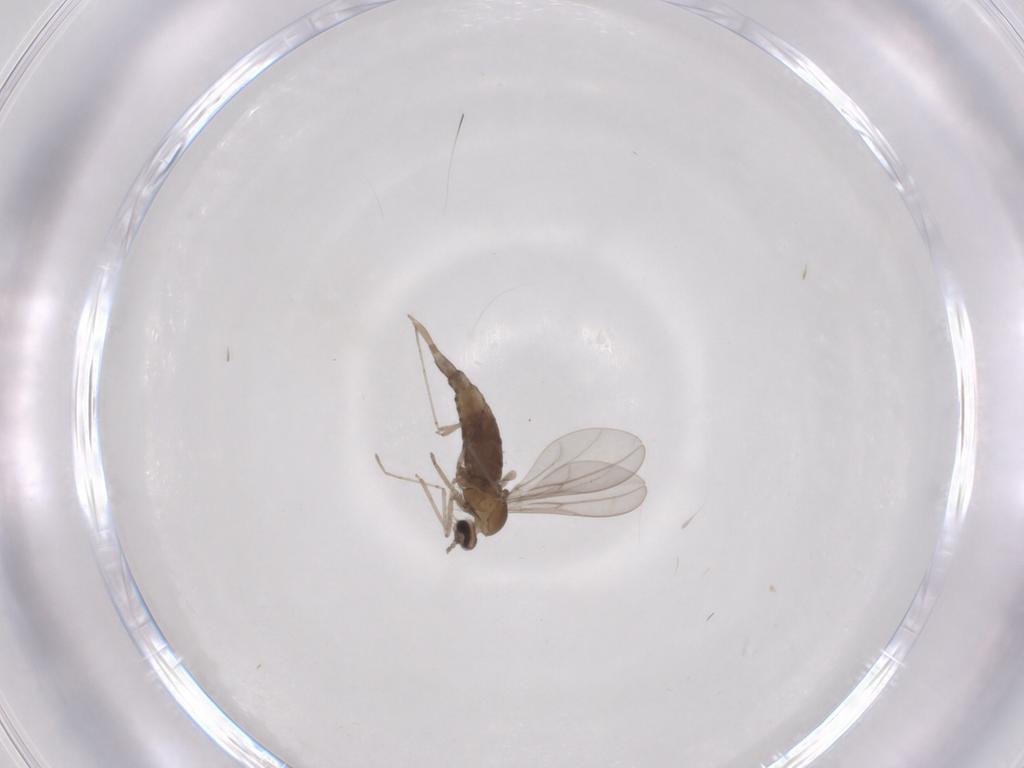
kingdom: Animalia
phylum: Arthropoda
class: Insecta
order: Diptera
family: Cecidomyiidae
